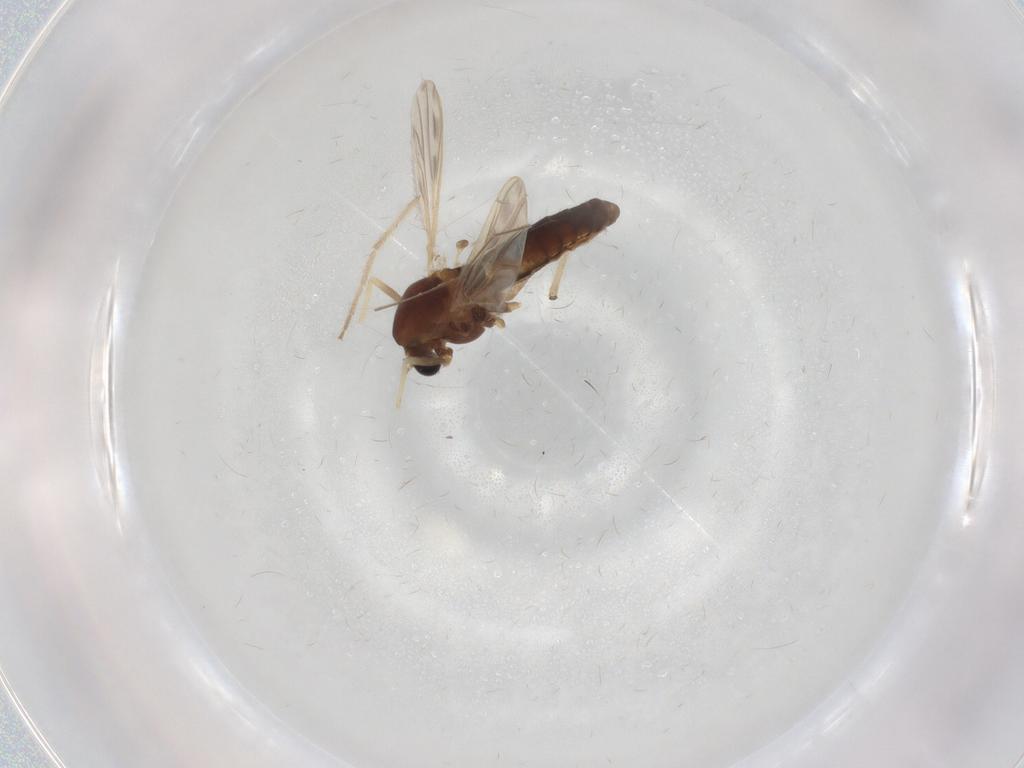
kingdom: Animalia
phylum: Arthropoda
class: Insecta
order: Diptera
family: Chironomidae
